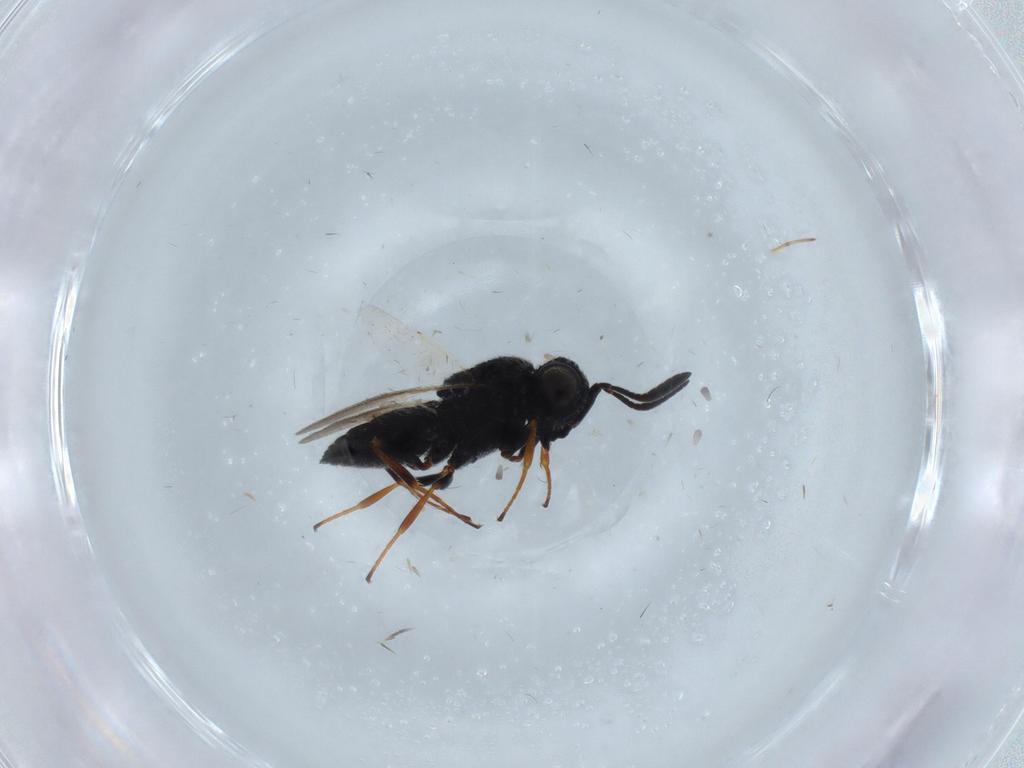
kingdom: Animalia
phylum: Arthropoda
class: Insecta
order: Hymenoptera
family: Scelionidae
